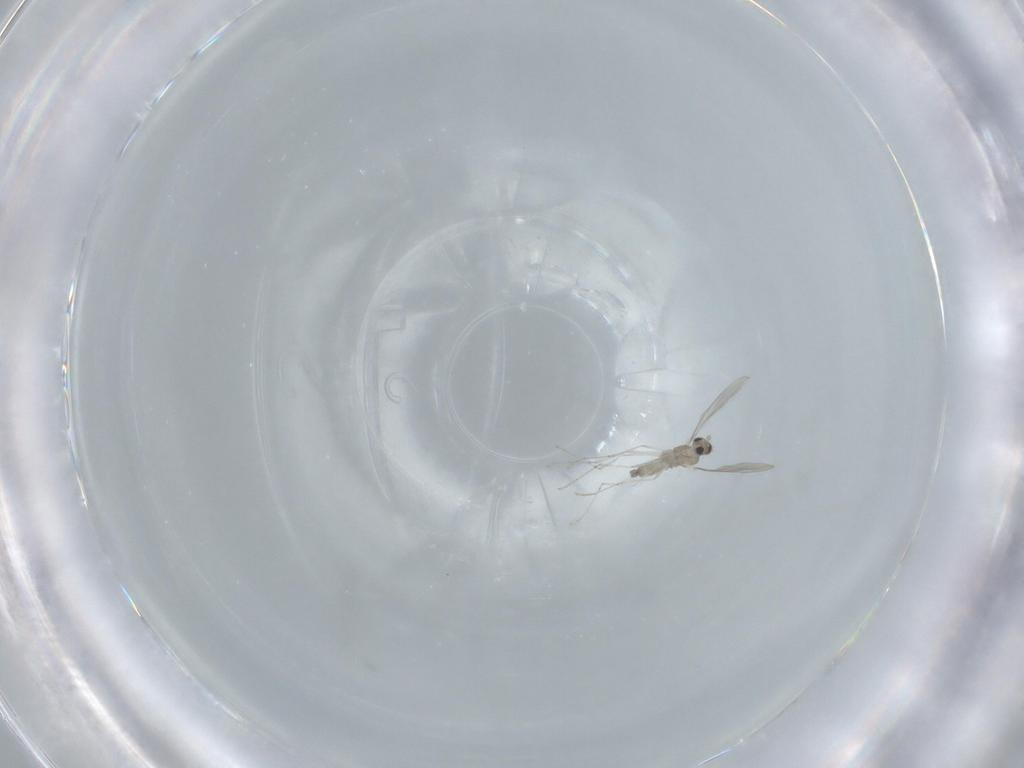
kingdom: Animalia
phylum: Arthropoda
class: Insecta
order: Diptera
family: Cecidomyiidae
